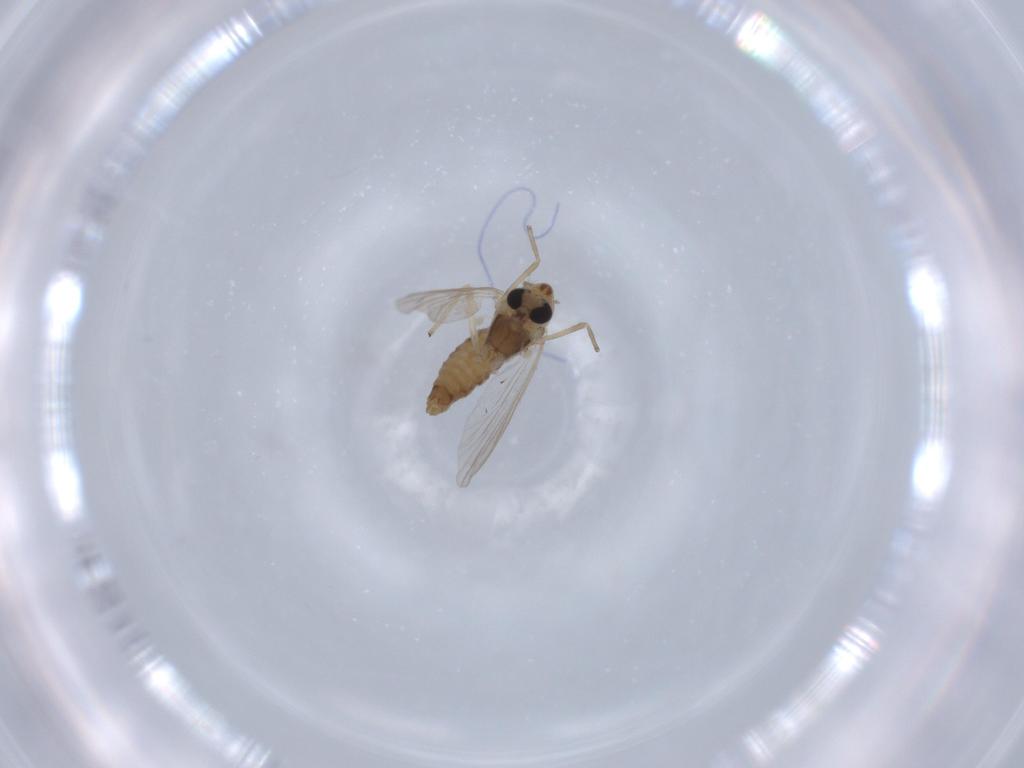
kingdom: Animalia
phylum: Arthropoda
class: Insecta
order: Diptera
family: Chironomidae
